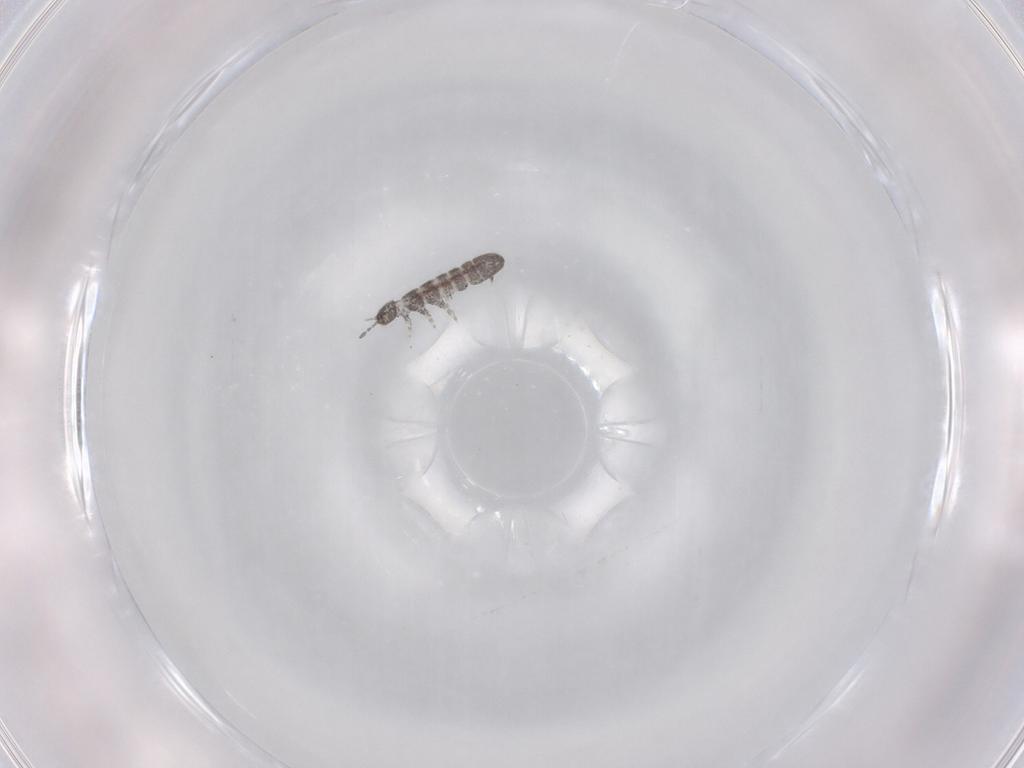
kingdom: Animalia
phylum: Arthropoda
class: Collembola
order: Entomobryomorpha
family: Isotomidae
